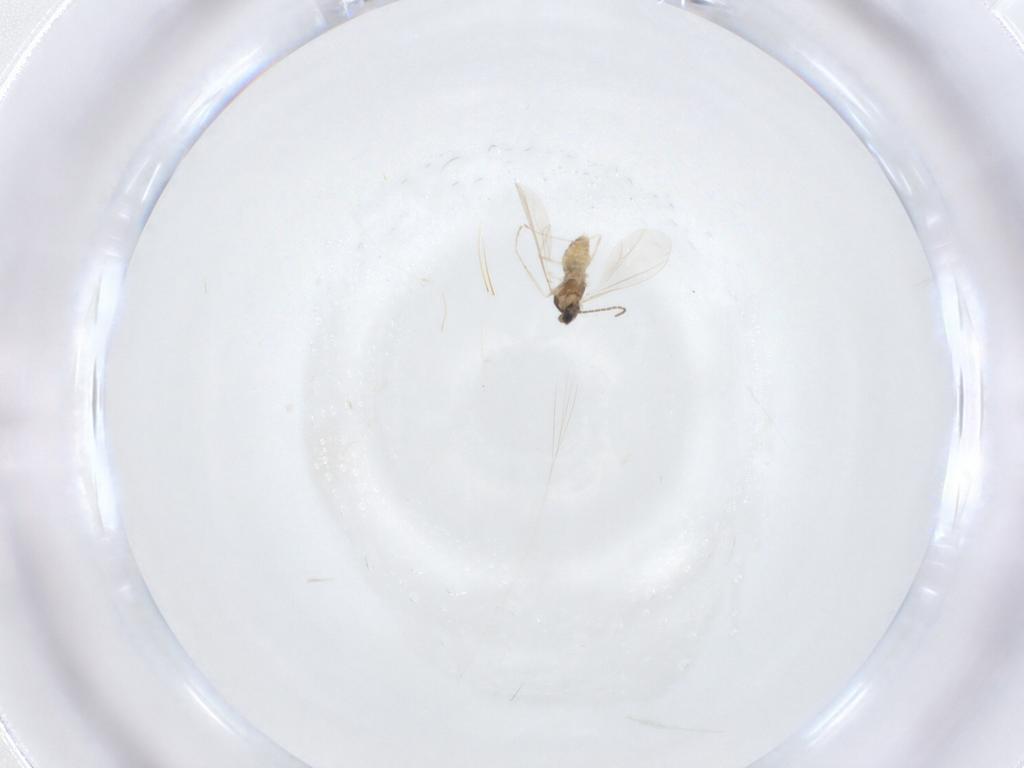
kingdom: Animalia
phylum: Arthropoda
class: Insecta
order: Diptera
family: Cecidomyiidae
